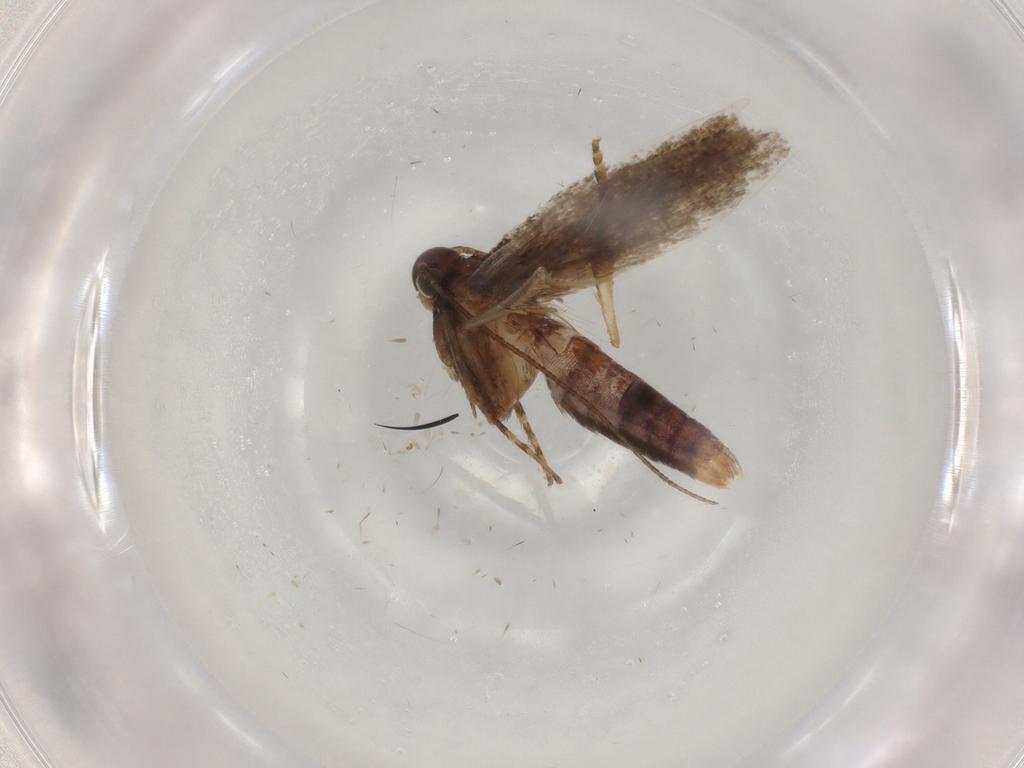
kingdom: Animalia
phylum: Arthropoda
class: Insecta
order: Lepidoptera
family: Gelechiidae
